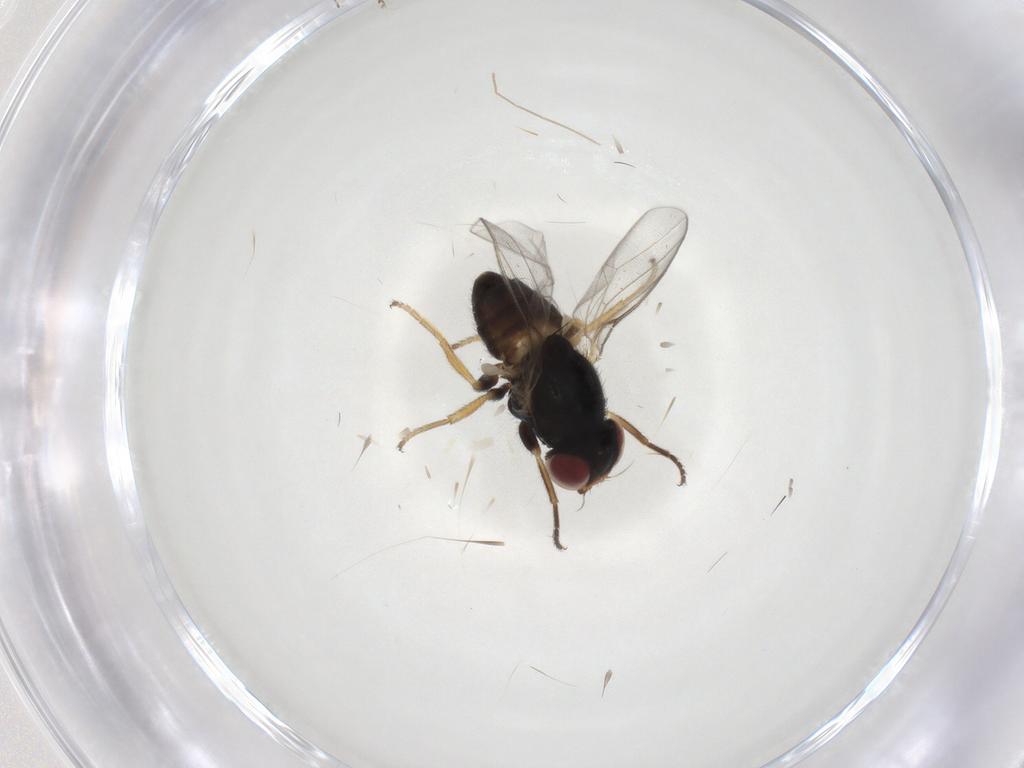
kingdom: Animalia
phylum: Arthropoda
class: Insecta
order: Diptera
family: Chloropidae
